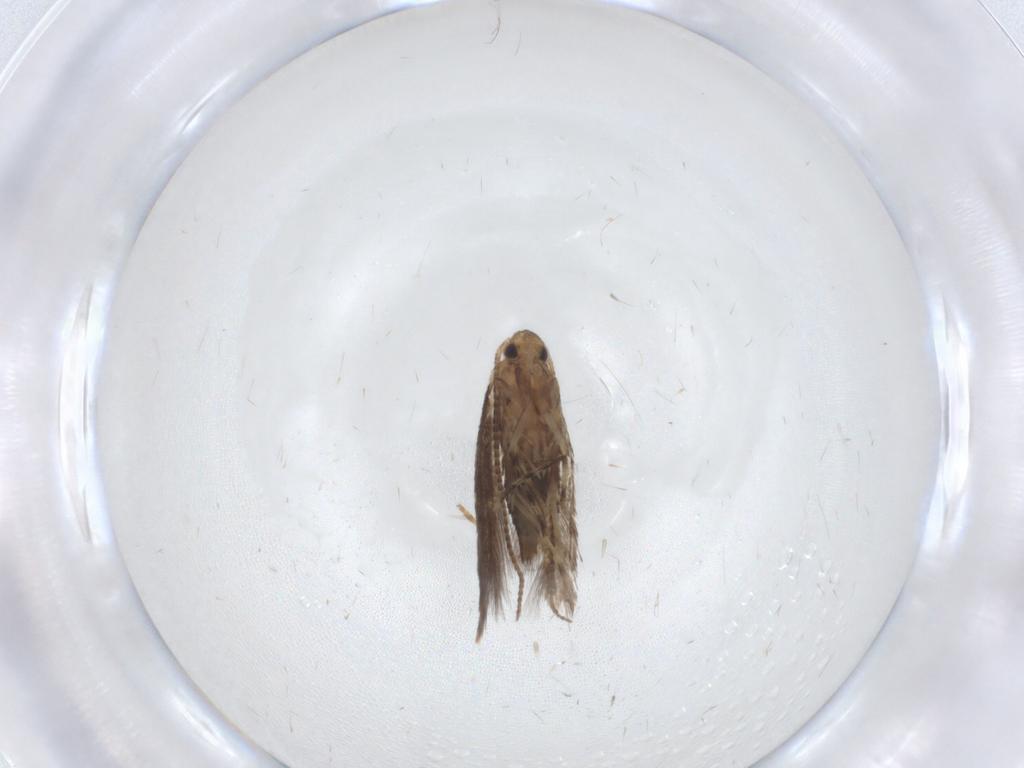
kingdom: Animalia
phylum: Arthropoda
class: Insecta
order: Lepidoptera
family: Gracillariidae
